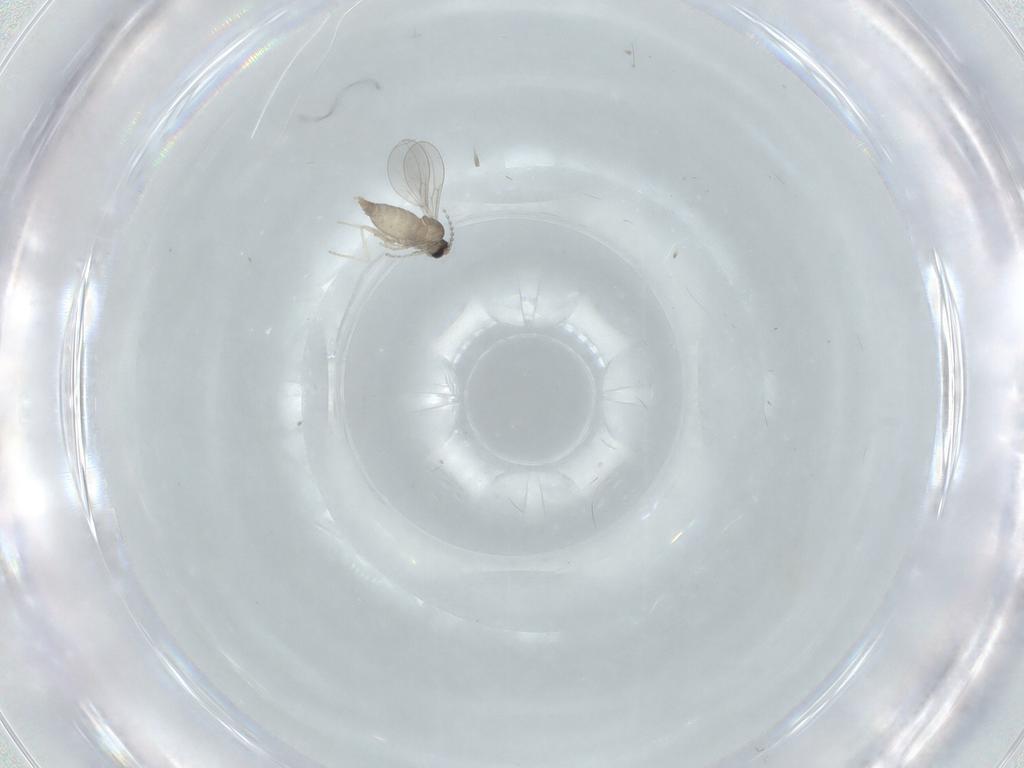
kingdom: Animalia
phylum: Arthropoda
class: Insecta
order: Diptera
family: Cecidomyiidae
